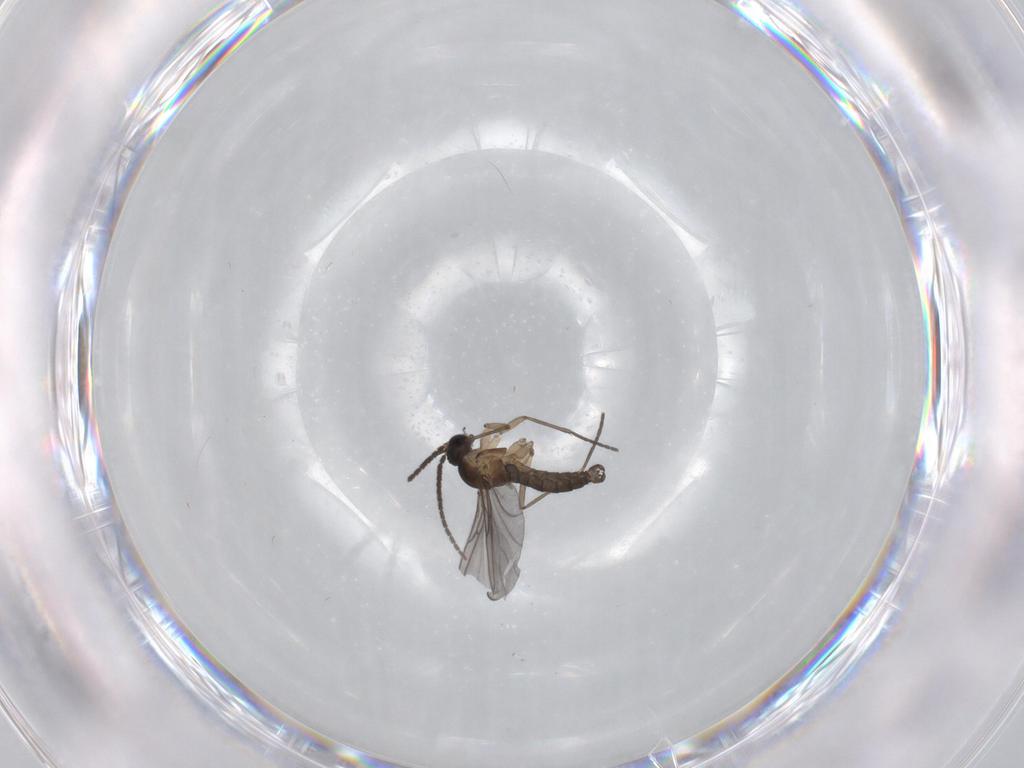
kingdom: Animalia
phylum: Arthropoda
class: Insecta
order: Diptera
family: Sciaridae
